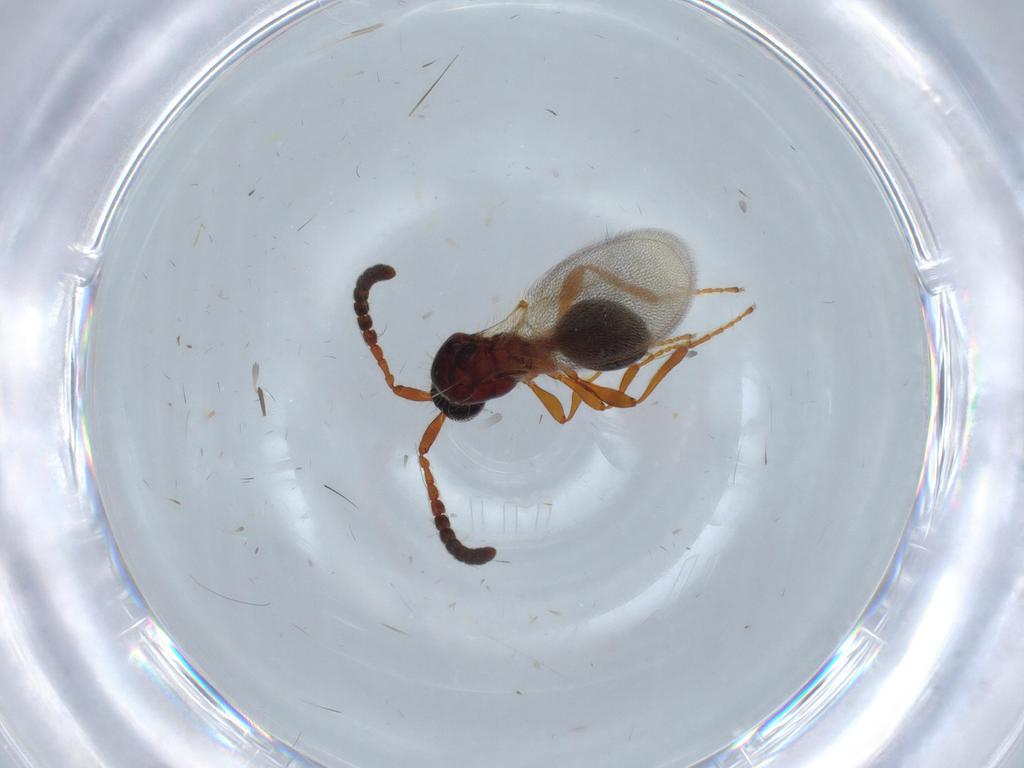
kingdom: Animalia
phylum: Arthropoda
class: Insecta
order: Hymenoptera
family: Diapriidae
